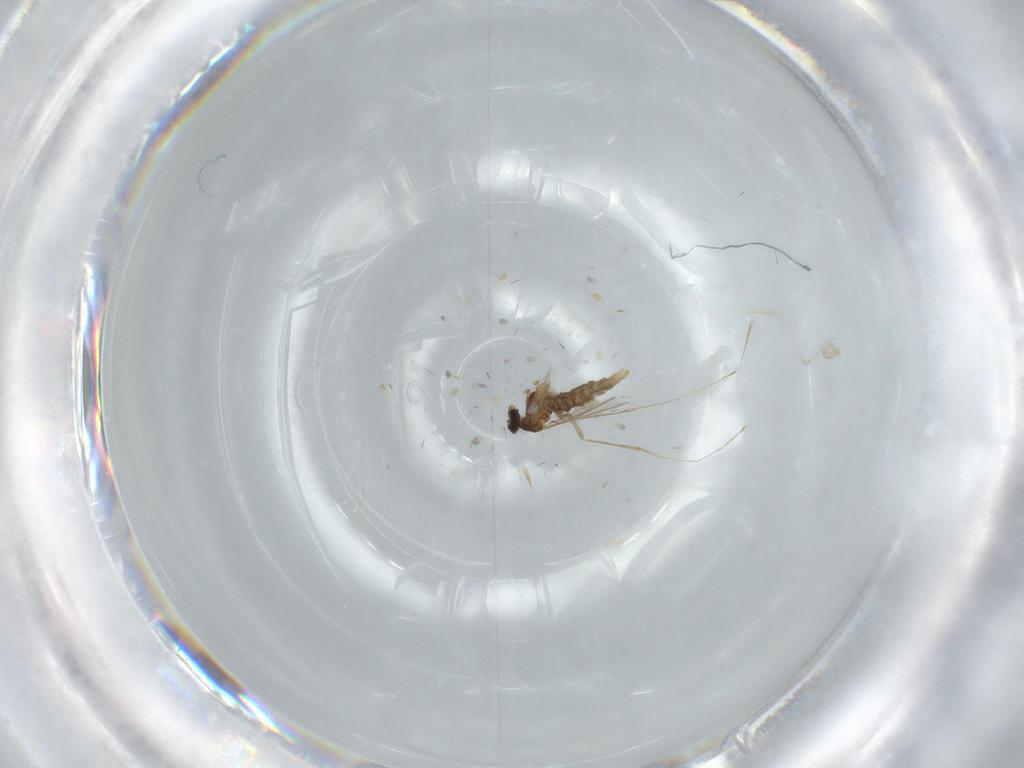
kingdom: Animalia
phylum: Arthropoda
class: Insecta
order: Diptera
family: Cecidomyiidae
